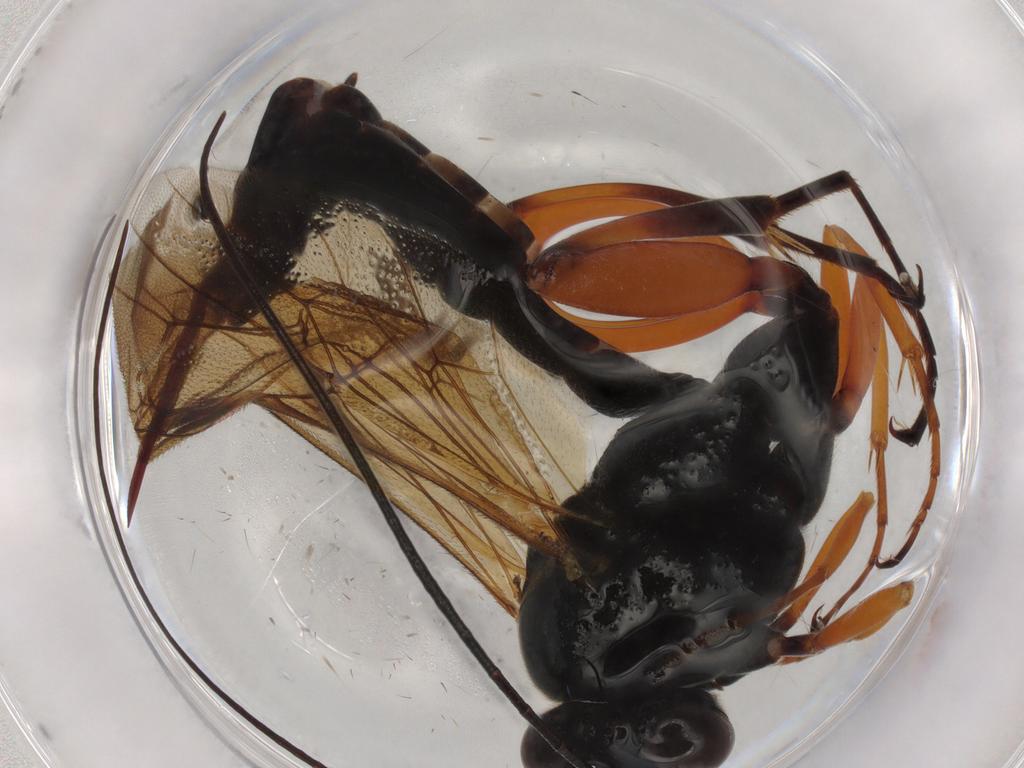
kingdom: Animalia
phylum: Arthropoda
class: Insecta
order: Hymenoptera
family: Ichneumonidae
